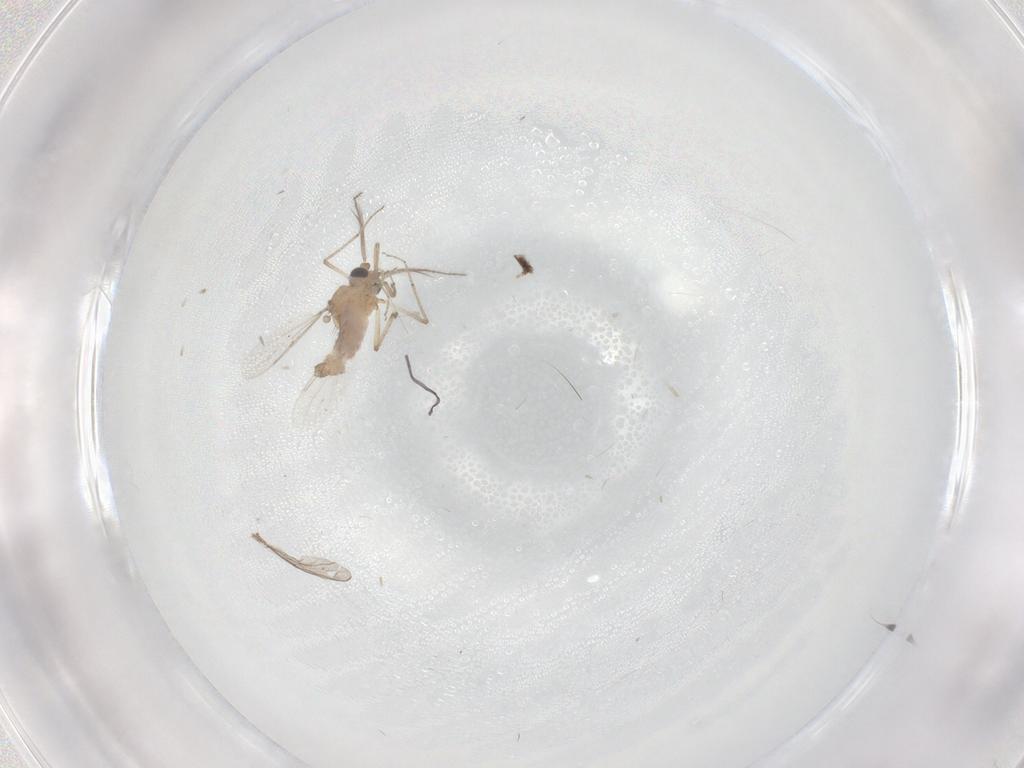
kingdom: Animalia
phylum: Arthropoda
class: Insecta
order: Diptera
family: Ceratopogonidae
